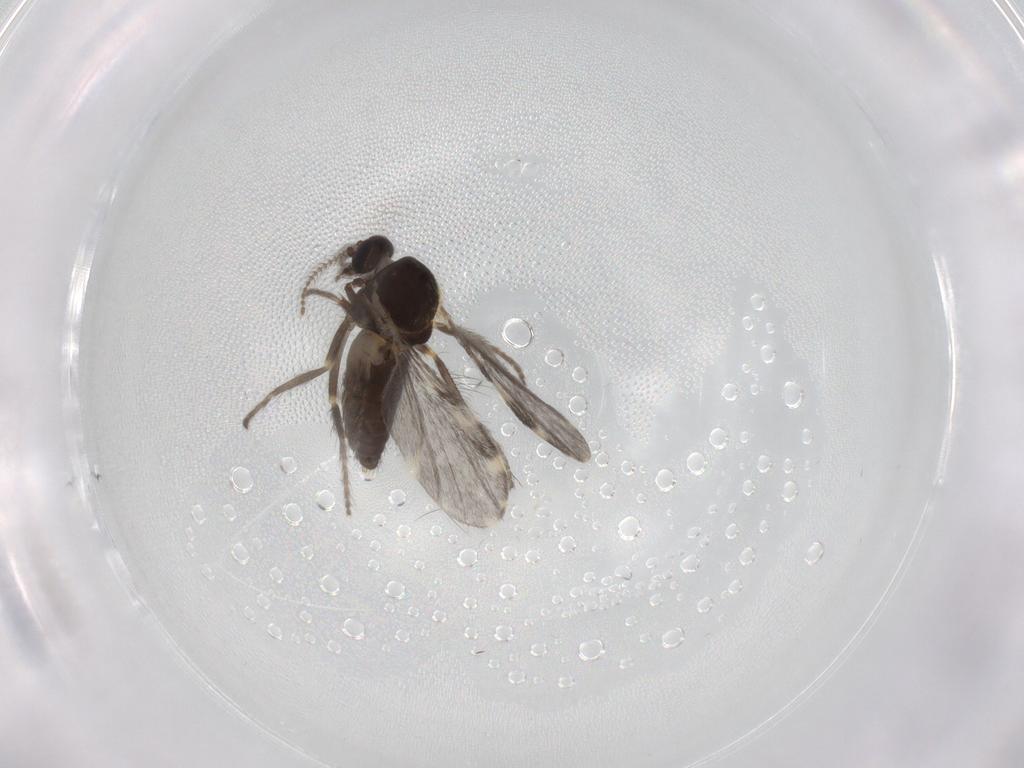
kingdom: Animalia
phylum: Arthropoda
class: Insecta
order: Diptera
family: Ceratopogonidae
